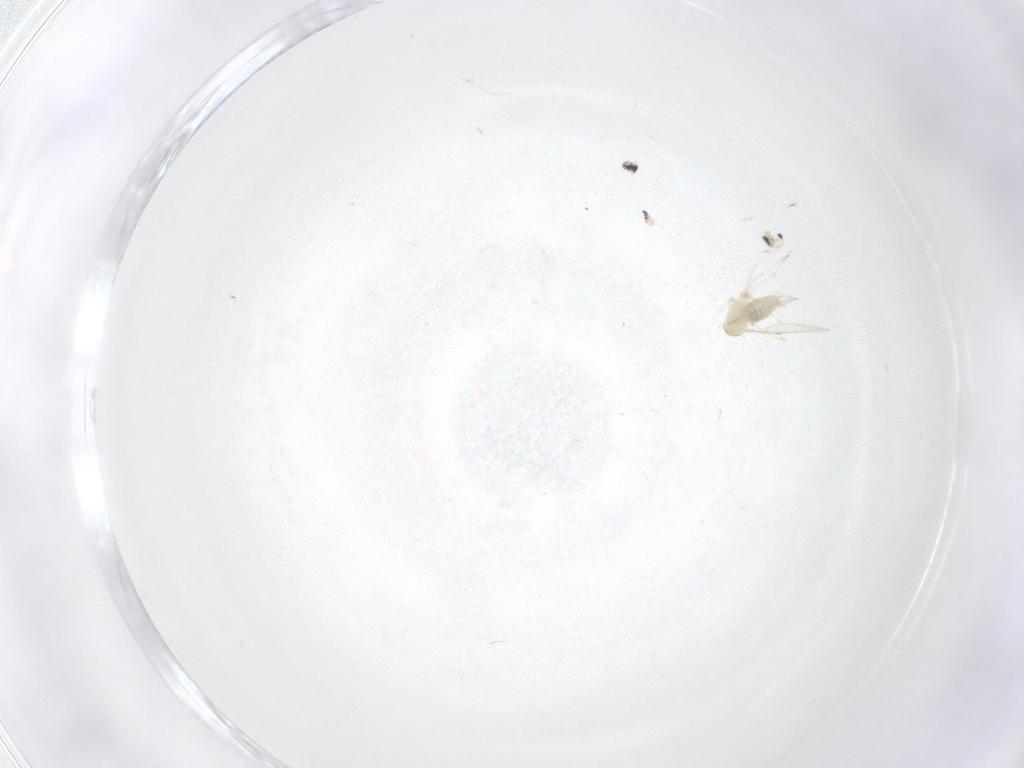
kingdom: Animalia
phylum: Arthropoda
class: Insecta
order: Diptera
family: Cecidomyiidae
